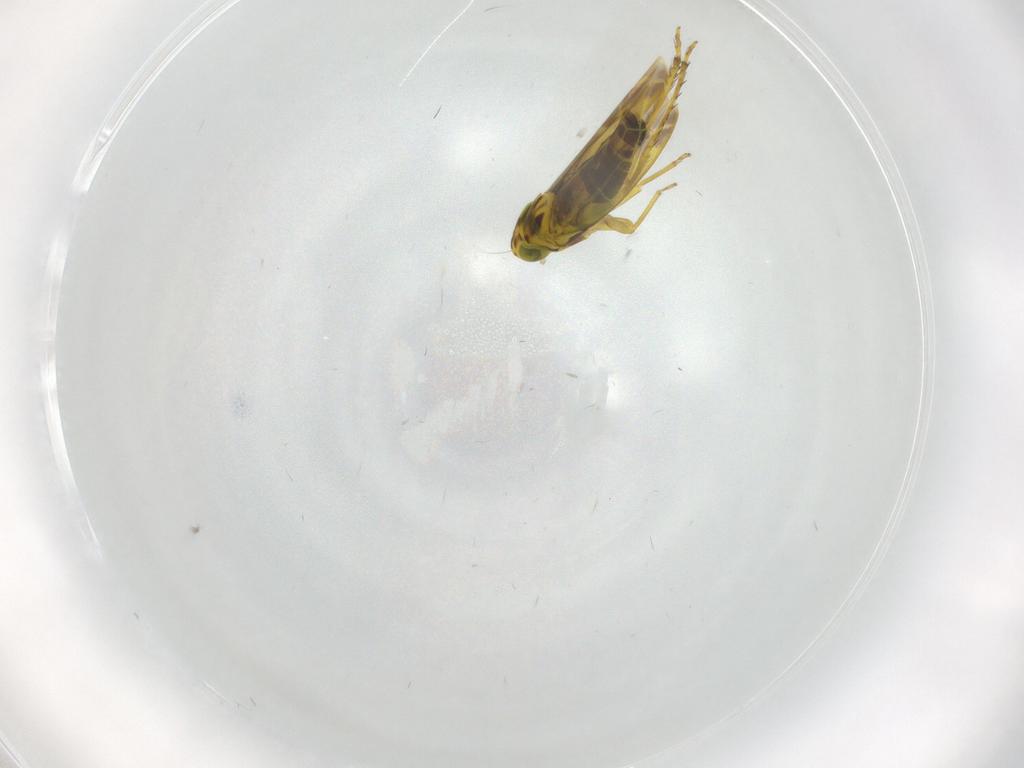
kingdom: Animalia
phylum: Arthropoda
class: Insecta
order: Hemiptera
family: Cicadellidae
